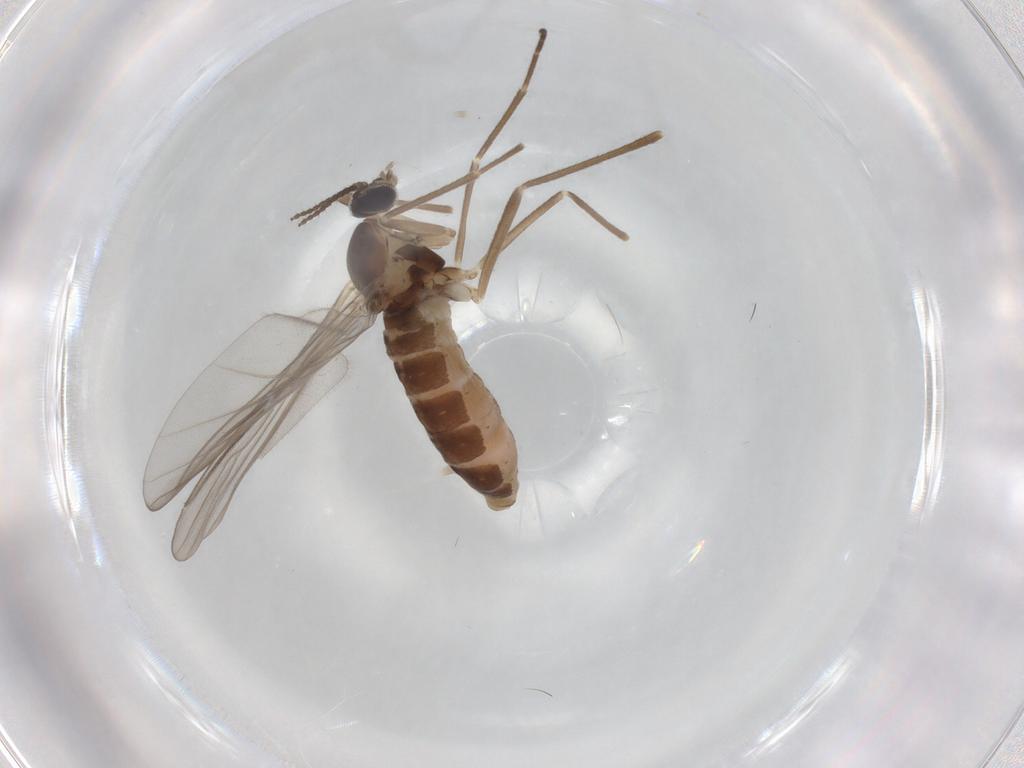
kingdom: Animalia
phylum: Arthropoda
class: Insecta
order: Diptera
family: Cecidomyiidae
